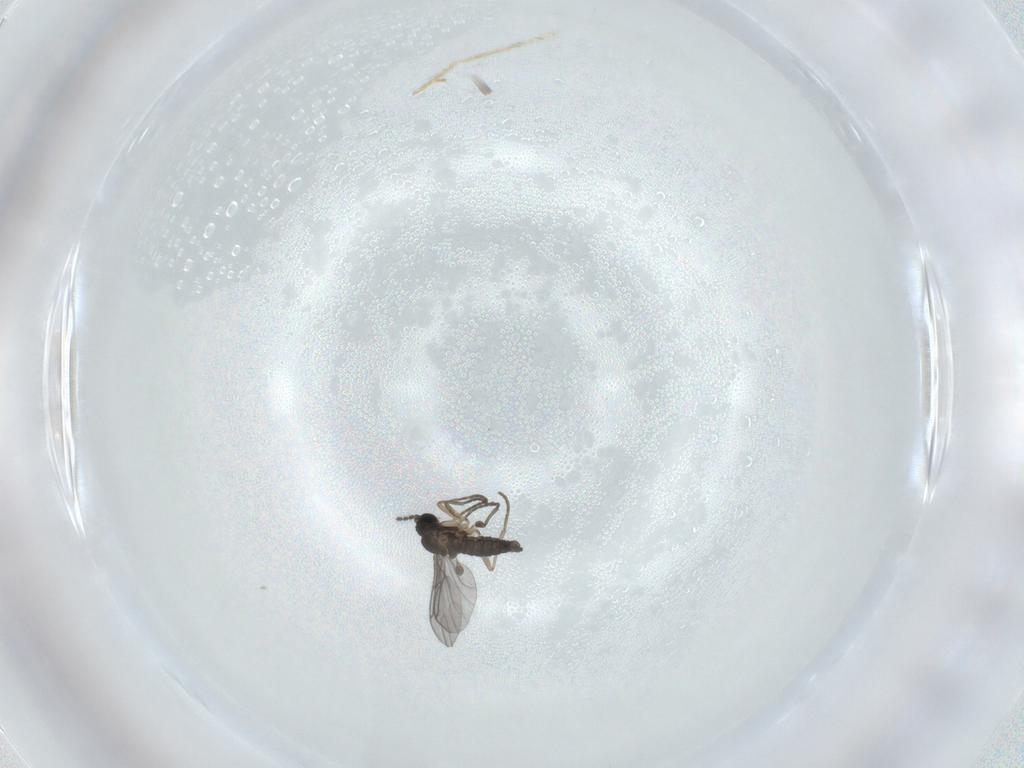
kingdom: Animalia
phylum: Arthropoda
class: Insecta
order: Diptera
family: Sciaridae
